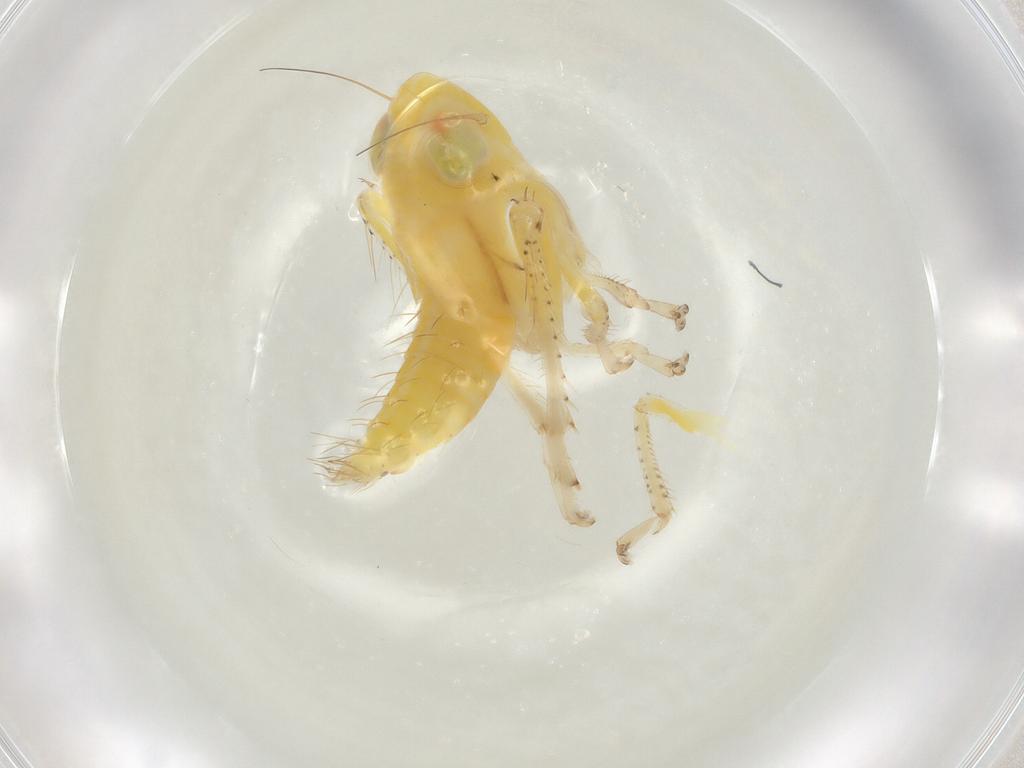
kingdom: Animalia
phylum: Arthropoda
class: Insecta
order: Hemiptera
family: Cicadellidae
